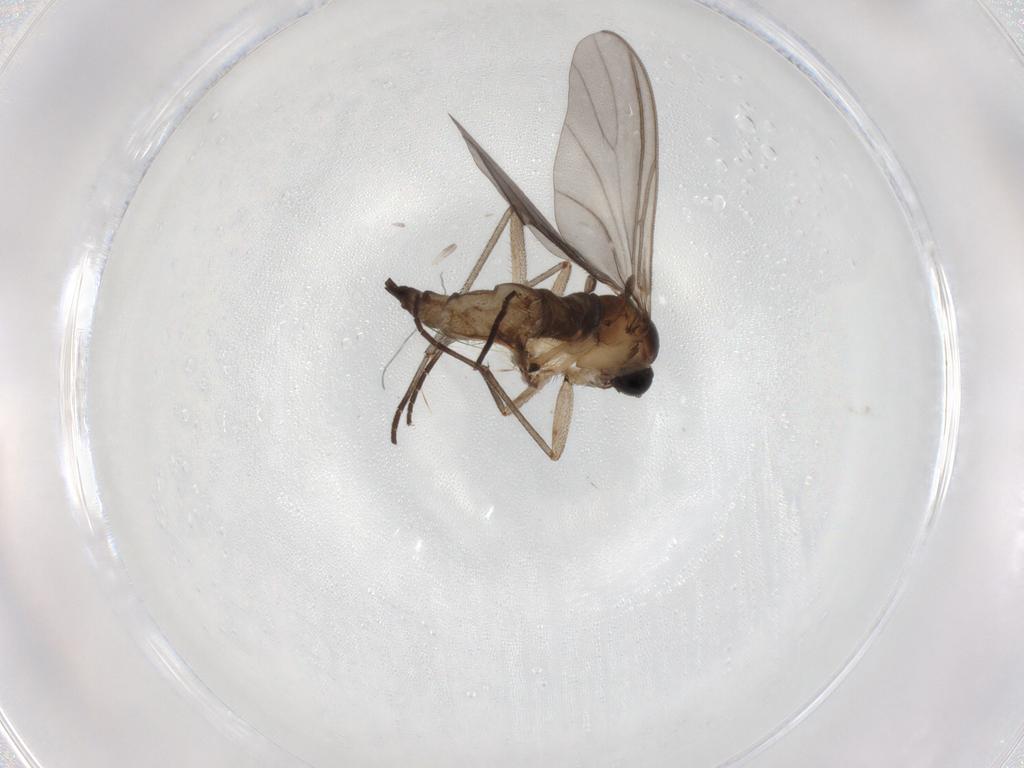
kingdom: Animalia
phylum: Arthropoda
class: Insecta
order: Diptera
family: Sciaridae
